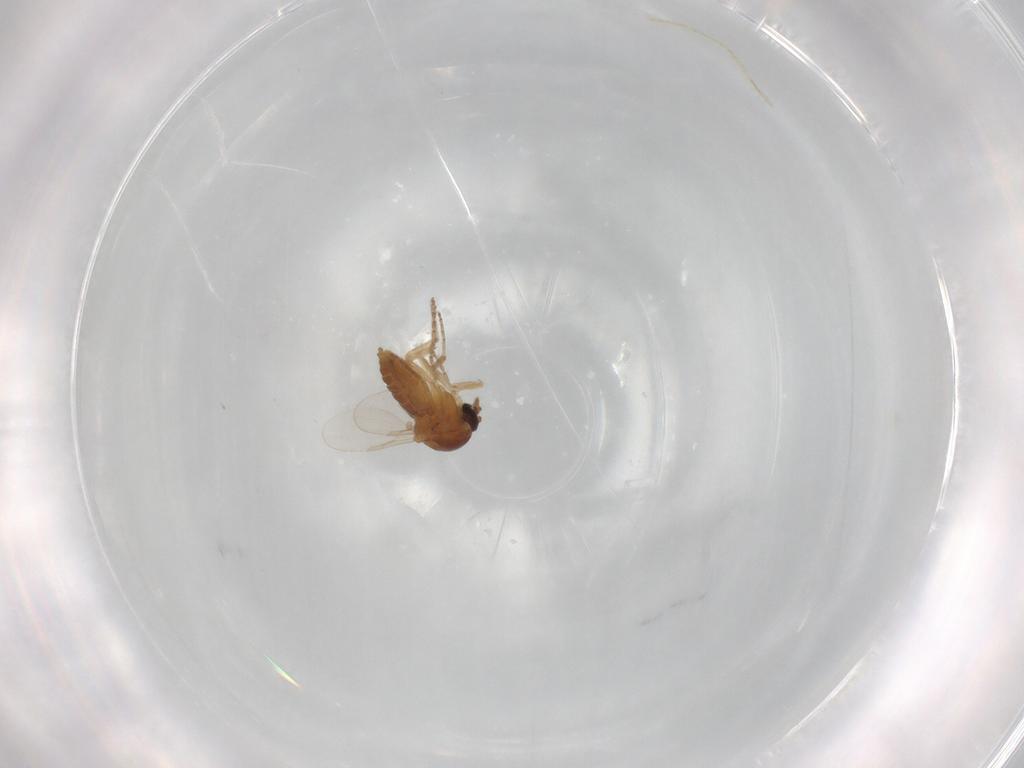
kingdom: Animalia
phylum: Arthropoda
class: Insecta
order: Diptera
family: Ceratopogonidae
